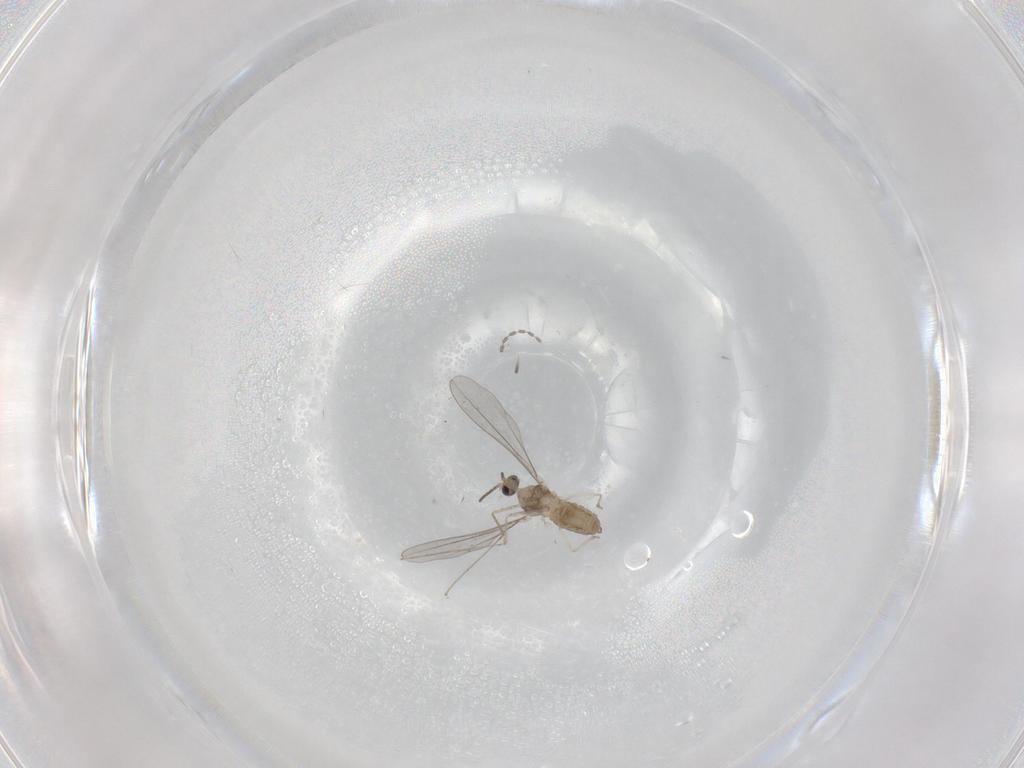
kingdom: Animalia
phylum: Arthropoda
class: Insecta
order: Diptera
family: Cecidomyiidae
